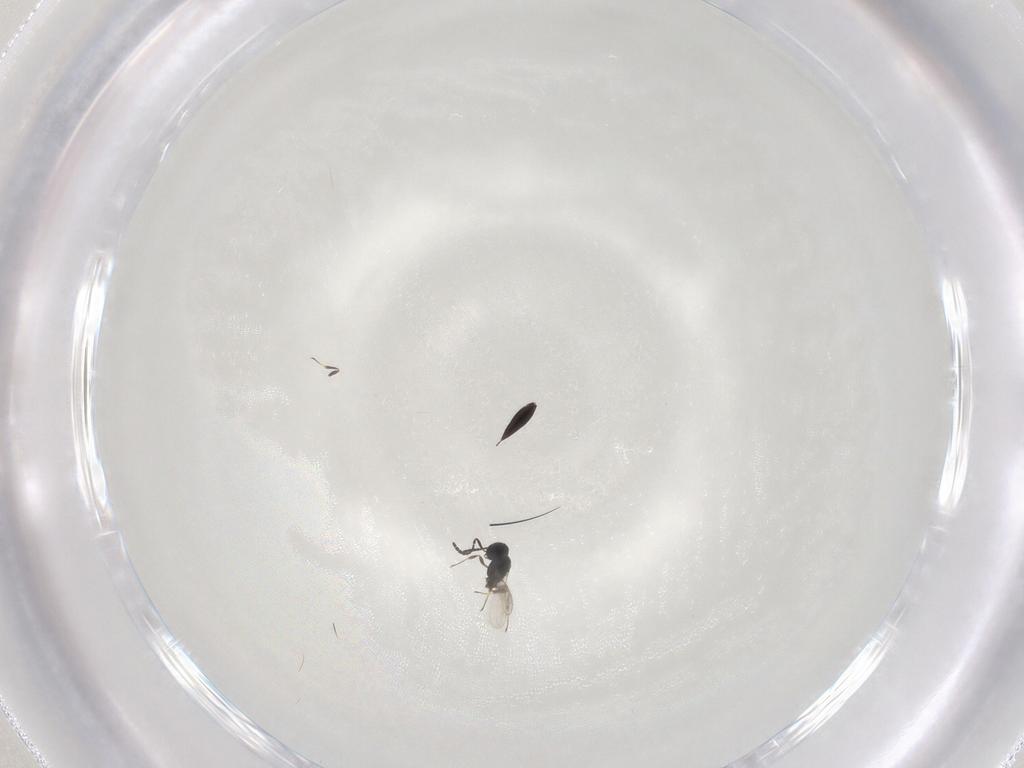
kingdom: Animalia
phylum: Arthropoda
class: Insecta
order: Hymenoptera
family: Scelionidae
